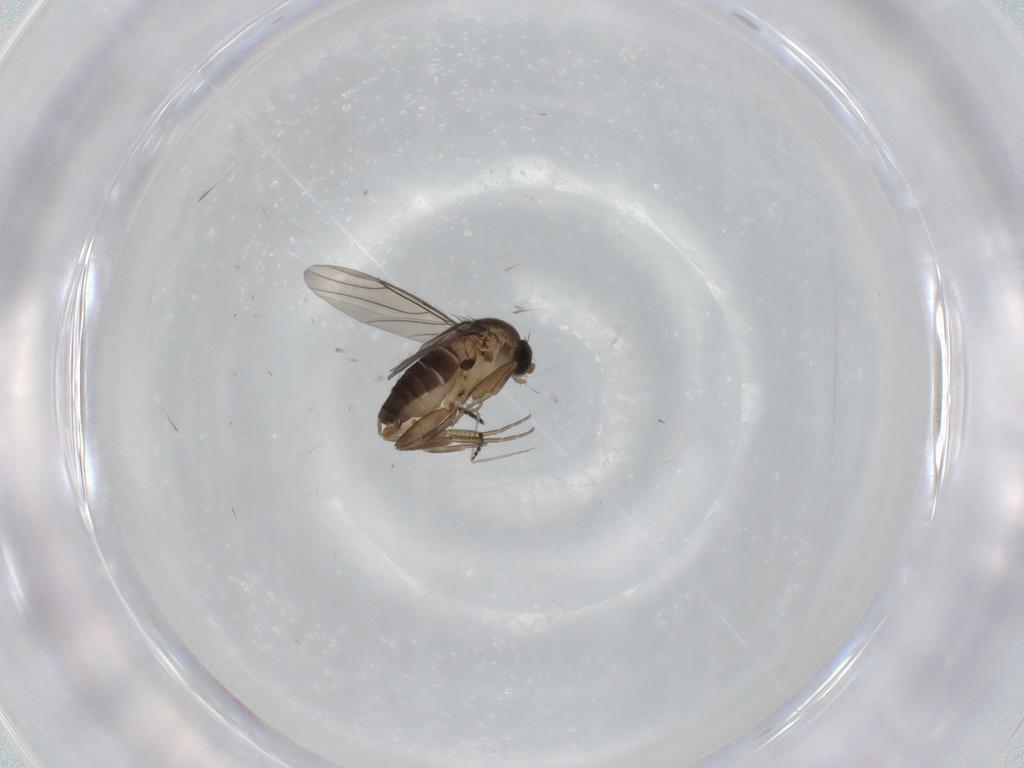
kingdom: Animalia
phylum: Arthropoda
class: Insecta
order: Diptera
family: Phoridae
